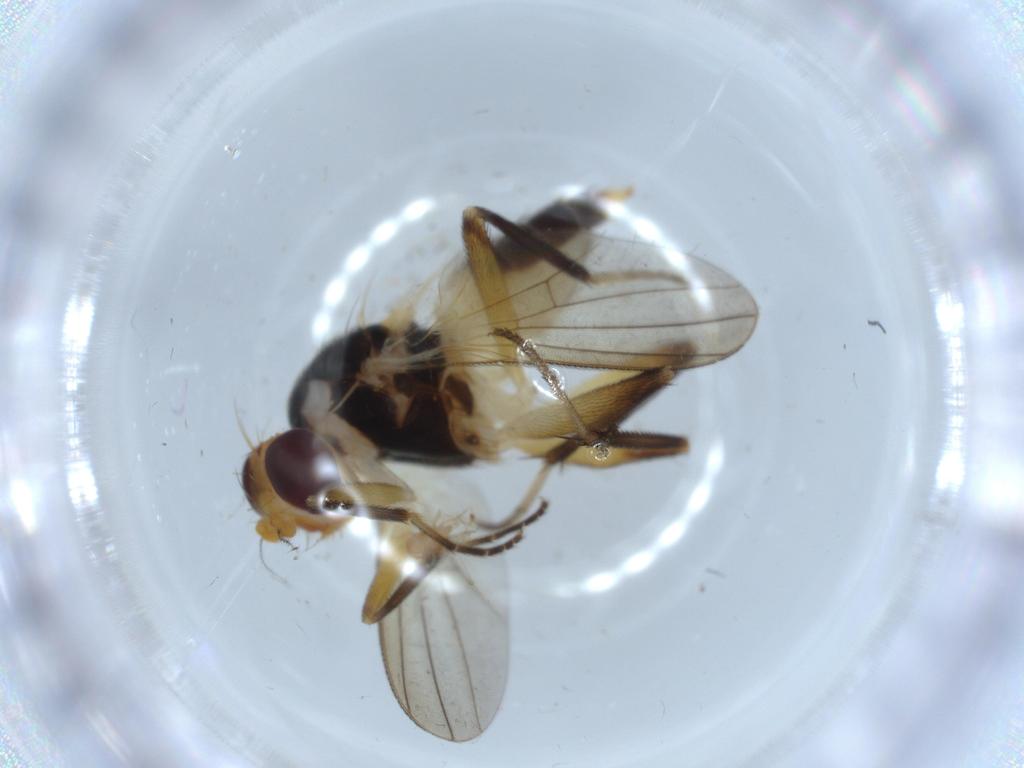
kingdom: Animalia
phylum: Arthropoda
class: Insecta
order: Diptera
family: Clusiidae
